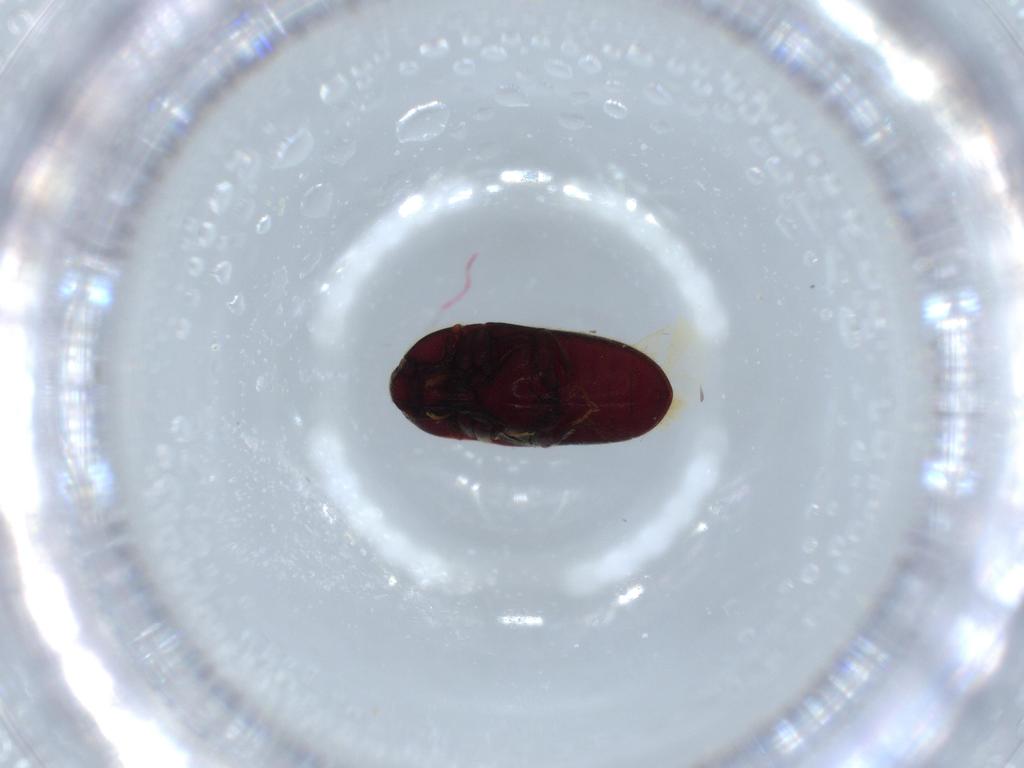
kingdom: Animalia
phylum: Arthropoda
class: Insecta
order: Coleoptera
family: Throscidae
